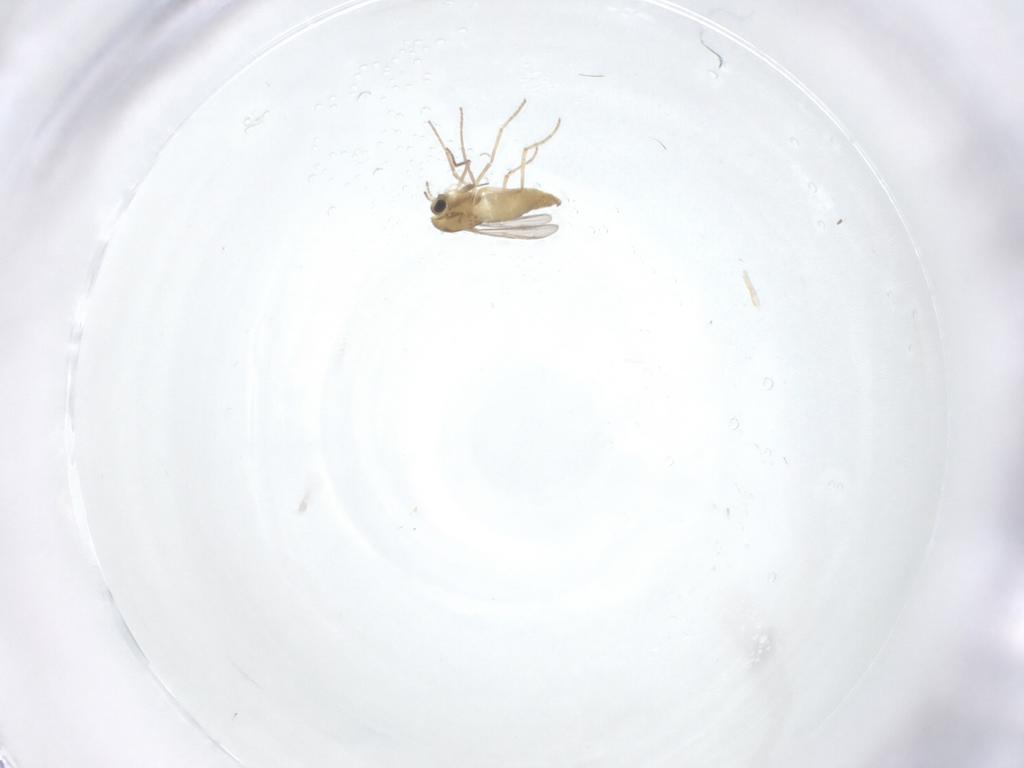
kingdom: Animalia
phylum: Arthropoda
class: Insecta
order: Diptera
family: Chironomidae
